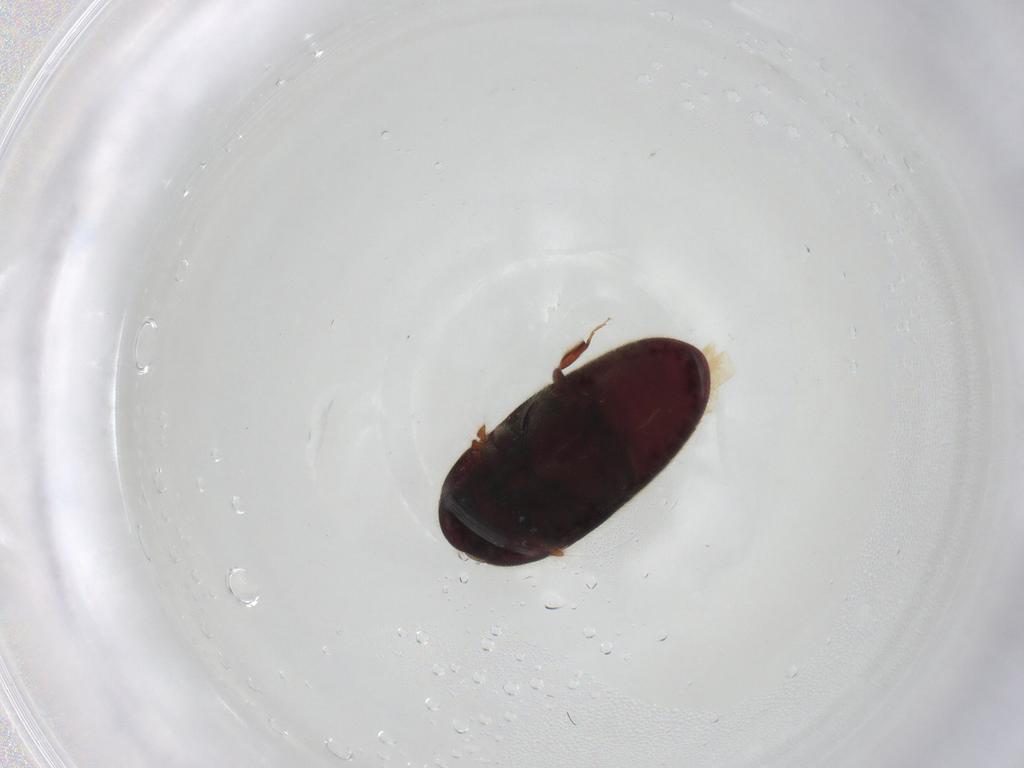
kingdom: Animalia
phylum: Arthropoda
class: Insecta
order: Coleoptera
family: Throscidae
